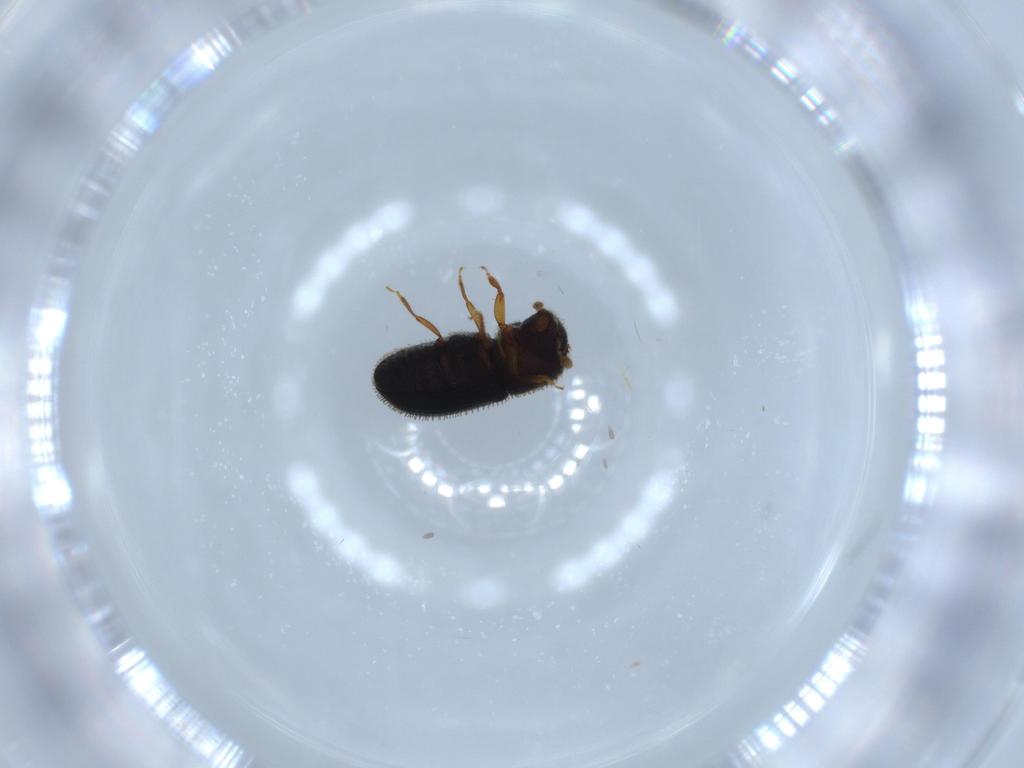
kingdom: Animalia
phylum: Arthropoda
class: Insecta
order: Coleoptera
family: Curculionidae
